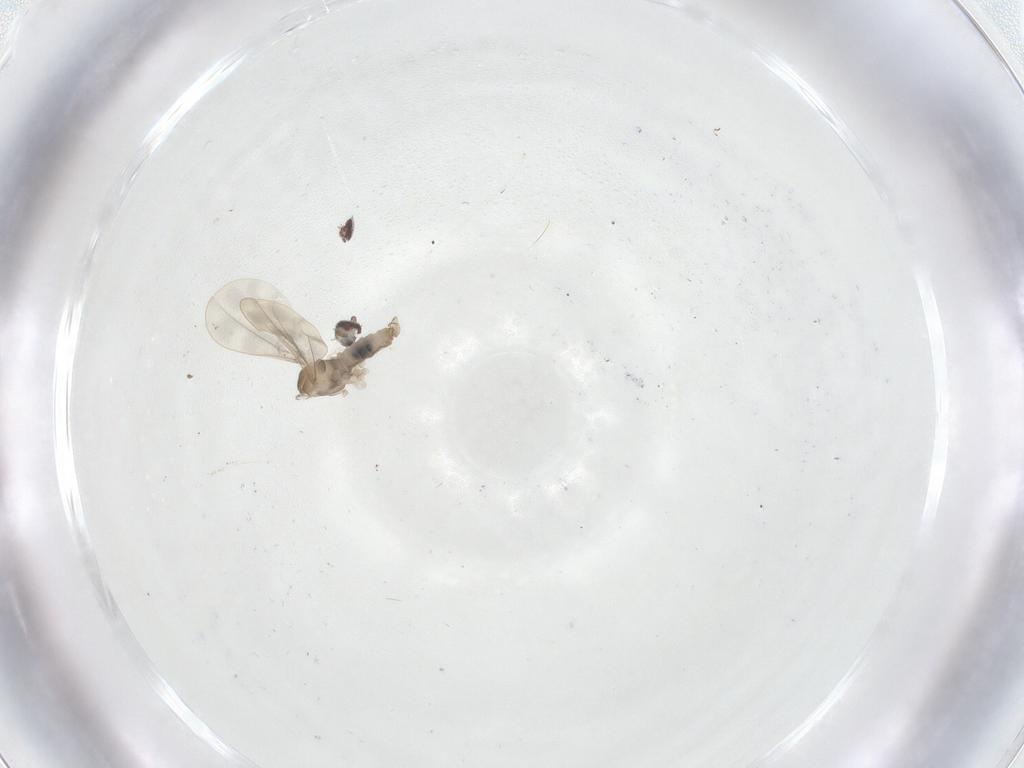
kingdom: Animalia
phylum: Arthropoda
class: Insecta
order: Diptera
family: Cecidomyiidae
